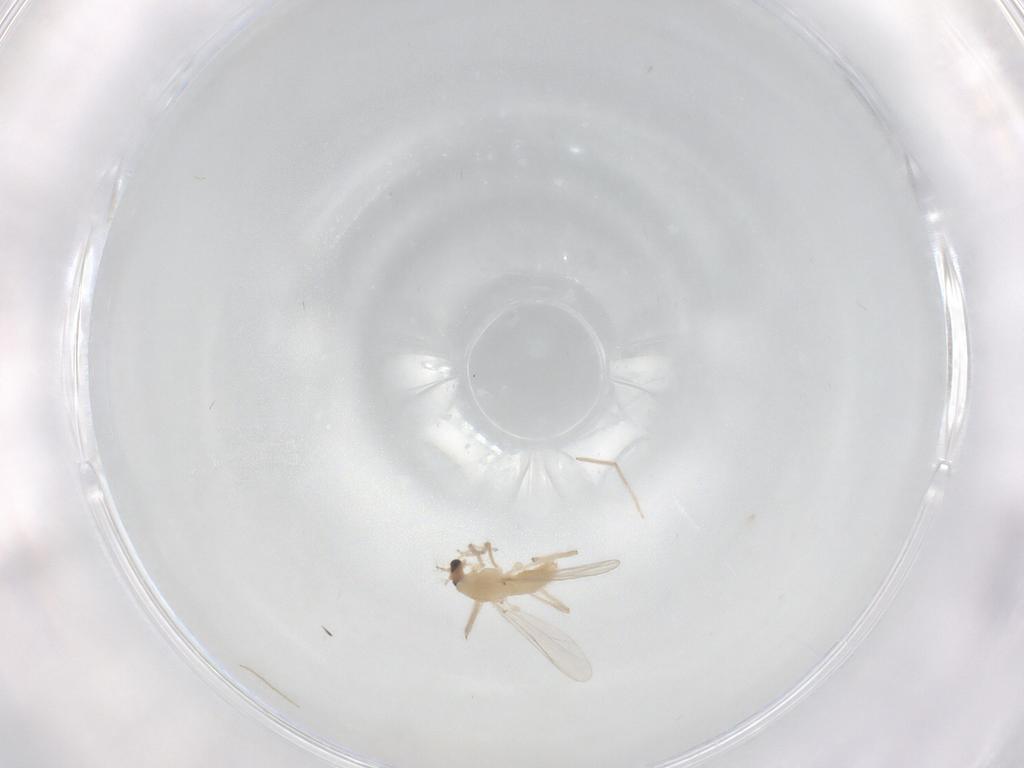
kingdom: Animalia
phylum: Arthropoda
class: Insecta
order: Diptera
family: Chironomidae
